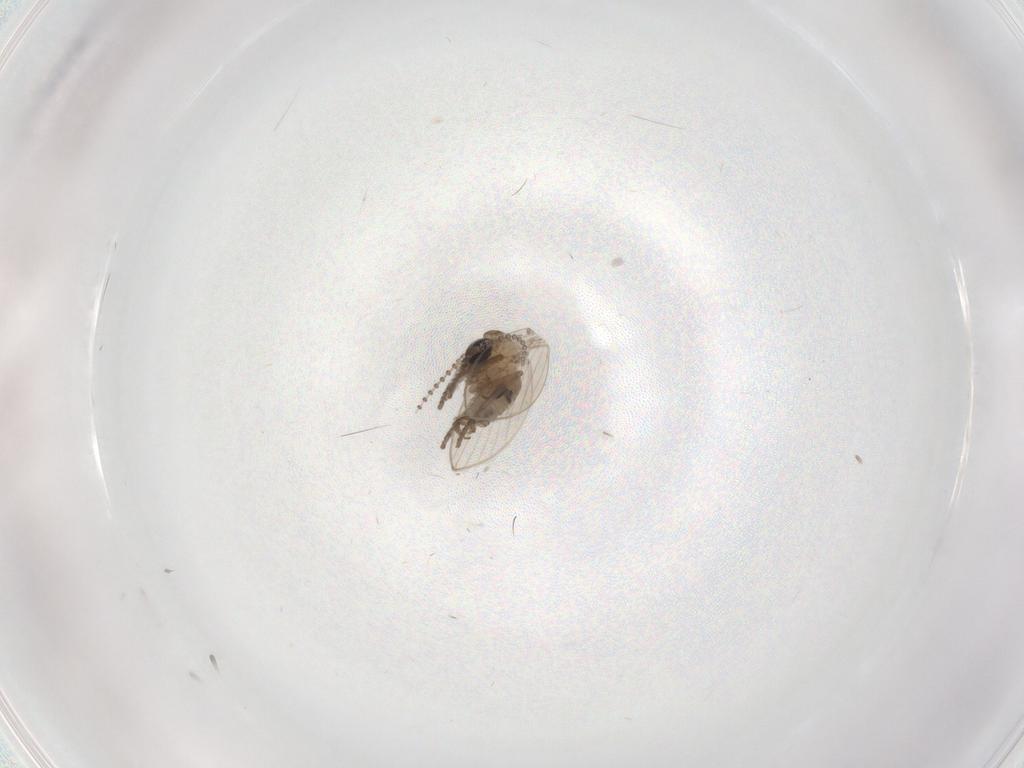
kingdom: Animalia
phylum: Arthropoda
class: Insecta
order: Diptera
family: Psychodidae
